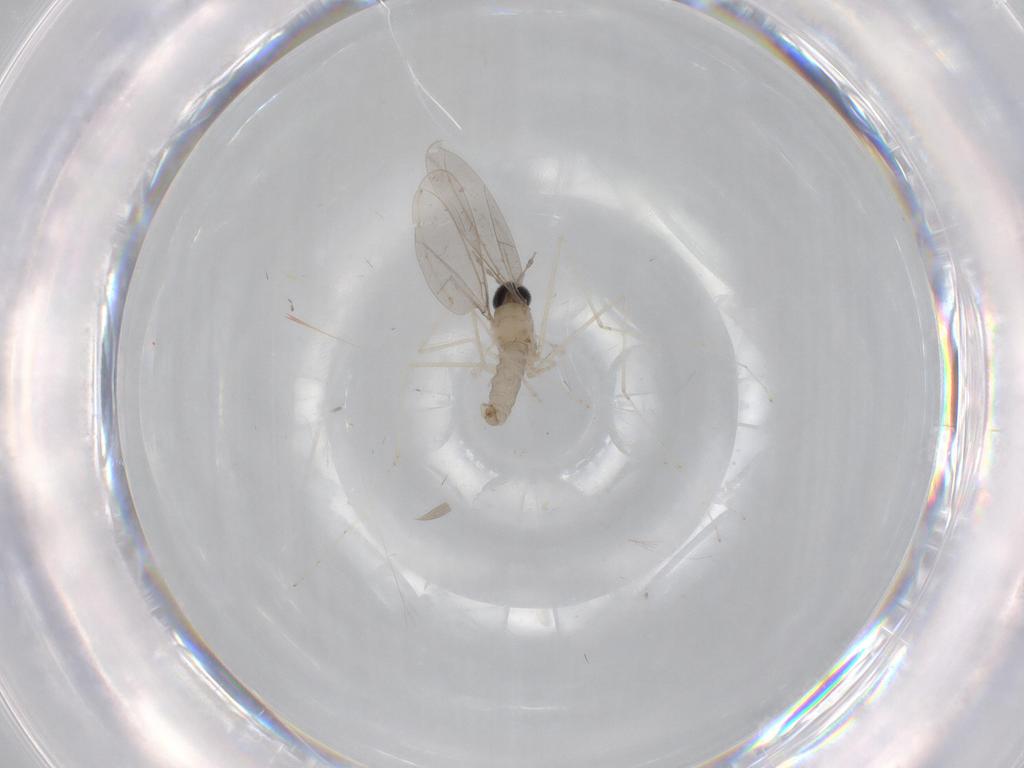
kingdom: Animalia
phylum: Arthropoda
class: Insecta
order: Diptera
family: Cecidomyiidae
